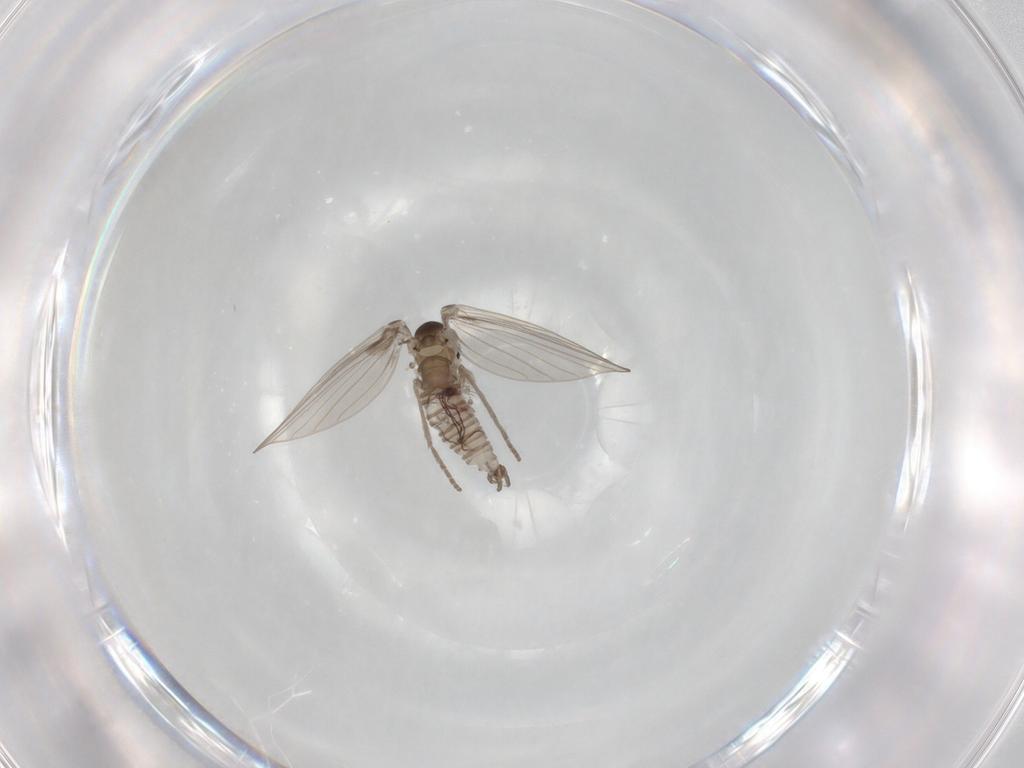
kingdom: Animalia
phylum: Arthropoda
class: Insecta
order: Diptera
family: Psychodidae
